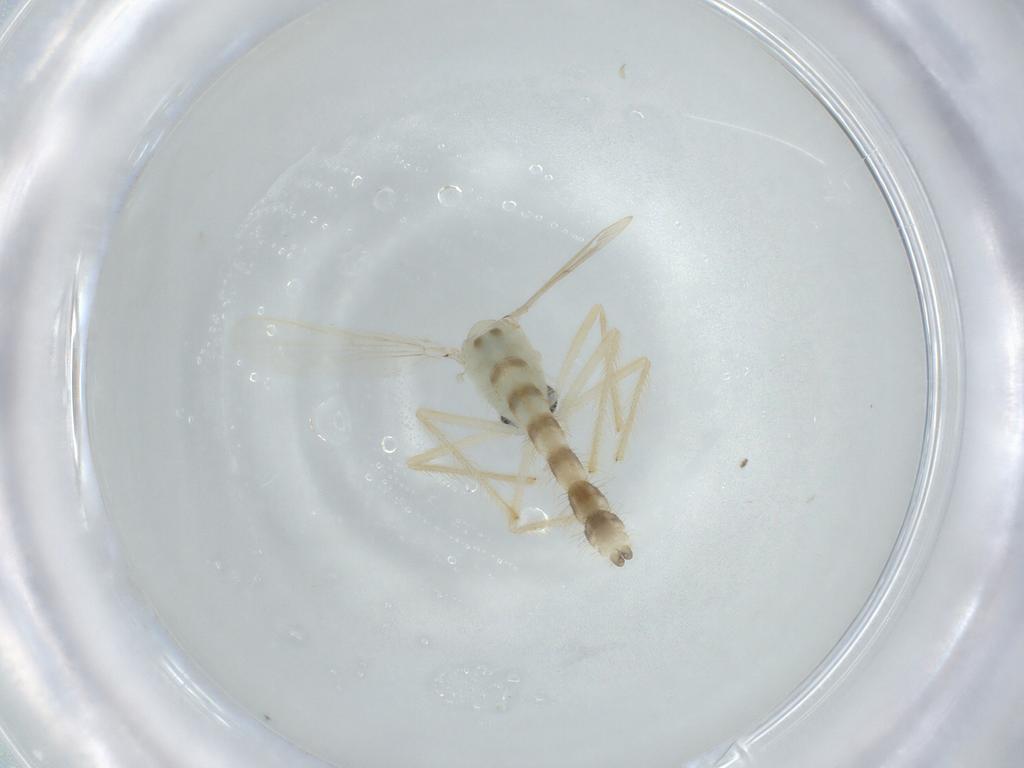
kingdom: Animalia
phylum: Arthropoda
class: Insecta
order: Diptera
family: Chironomidae
